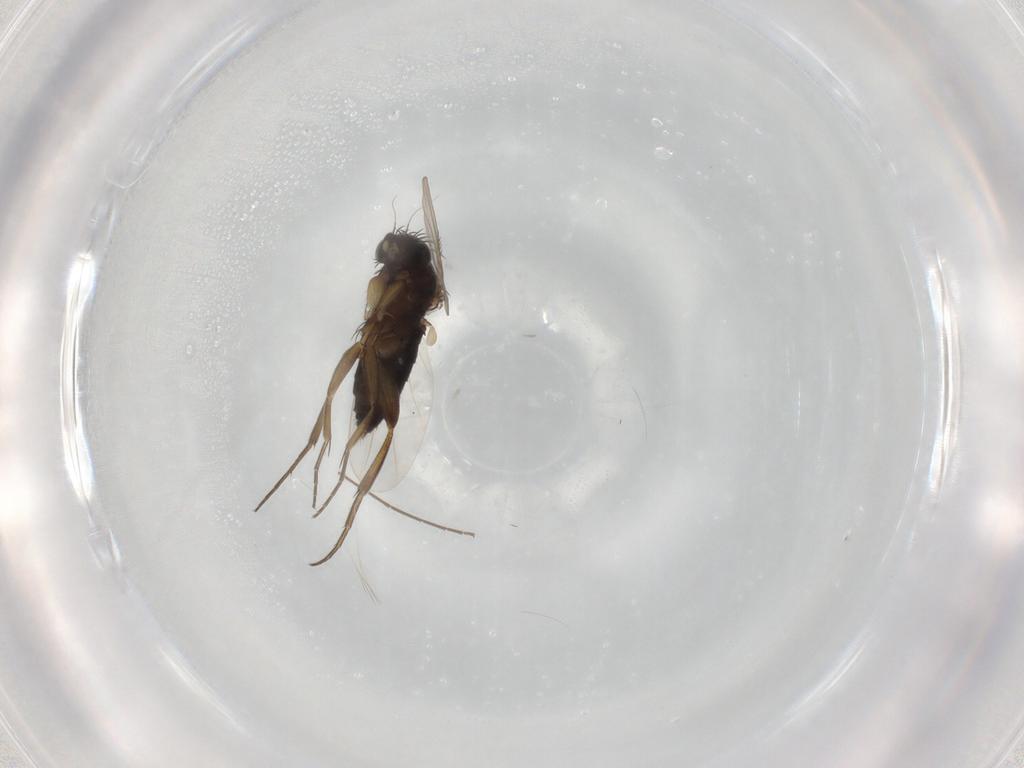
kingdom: Animalia
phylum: Arthropoda
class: Insecta
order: Diptera
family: Phoridae
